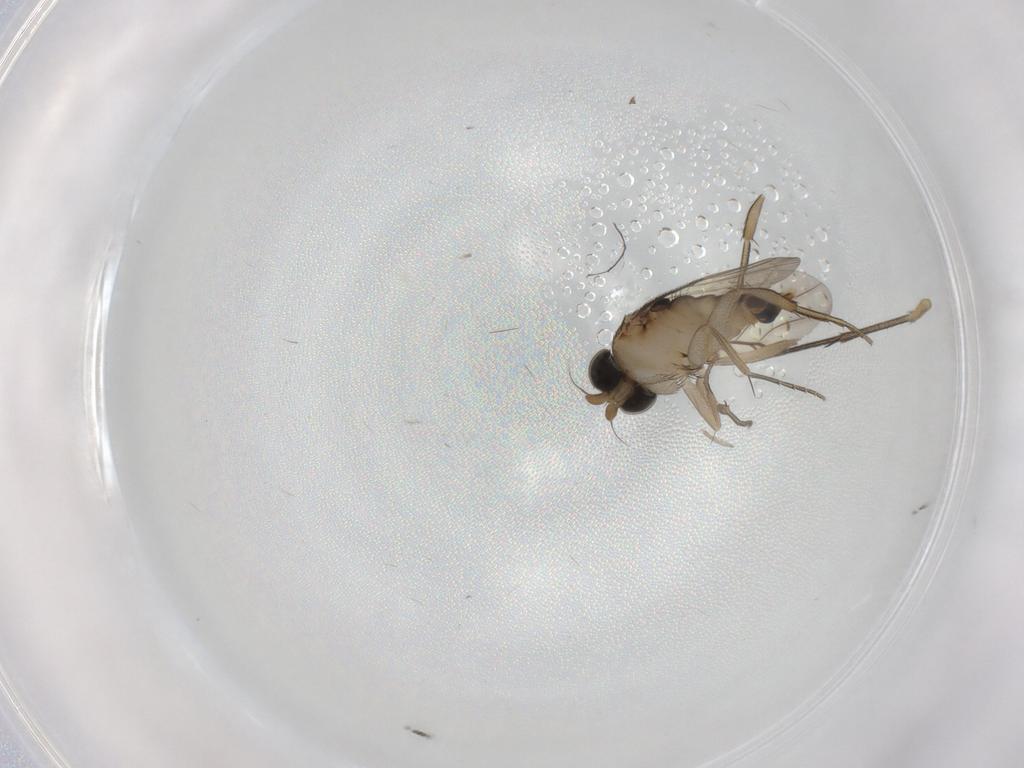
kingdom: Animalia
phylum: Arthropoda
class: Insecta
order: Diptera
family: Phoridae
